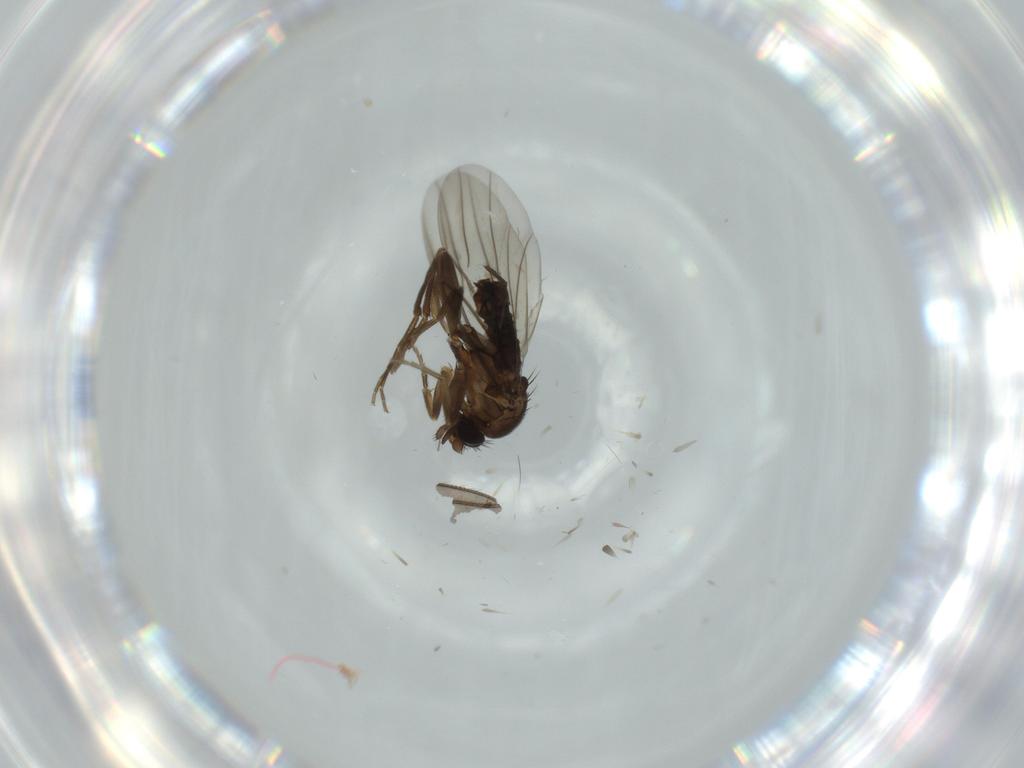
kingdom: Animalia
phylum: Arthropoda
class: Insecta
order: Diptera
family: Sciaridae
